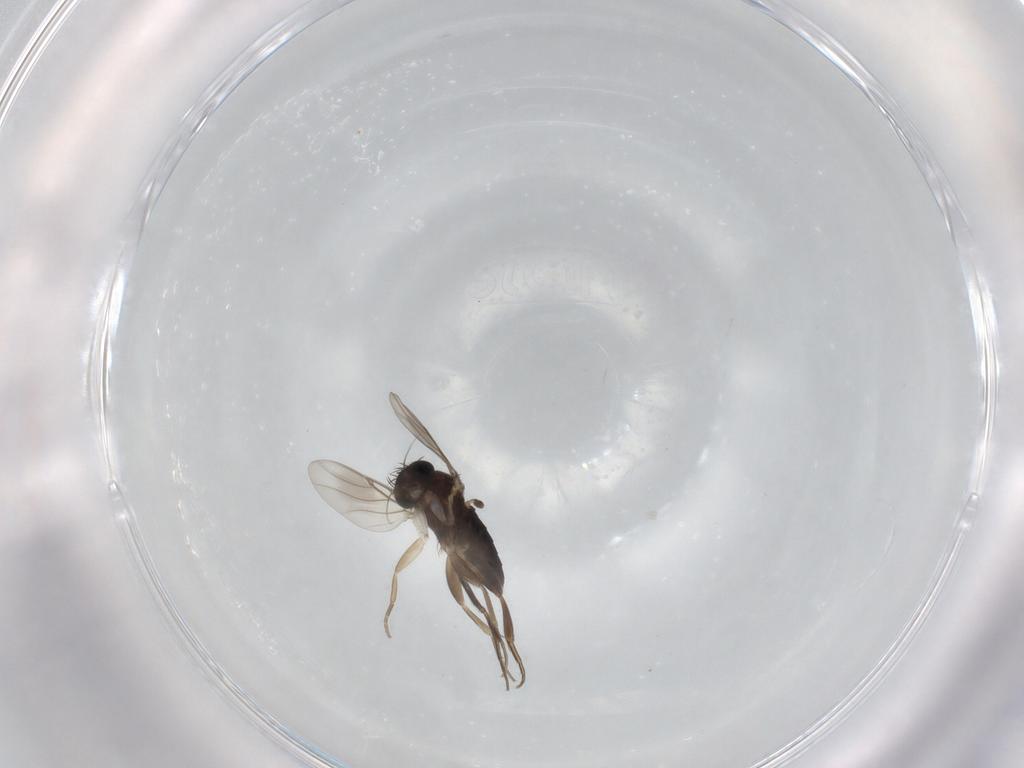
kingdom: Animalia
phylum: Arthropoda
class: Insecta
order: Diptera
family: Phoridae
